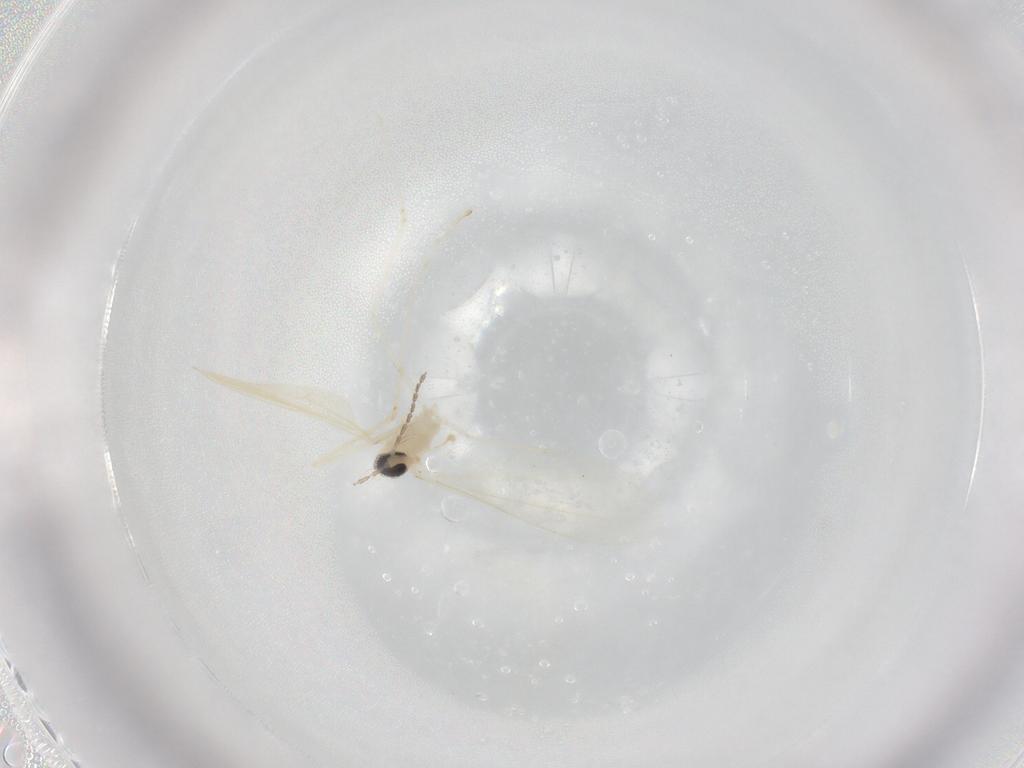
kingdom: Animalia
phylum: Arthropoda
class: Insecta
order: Diptera
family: Cecidomyiidae
